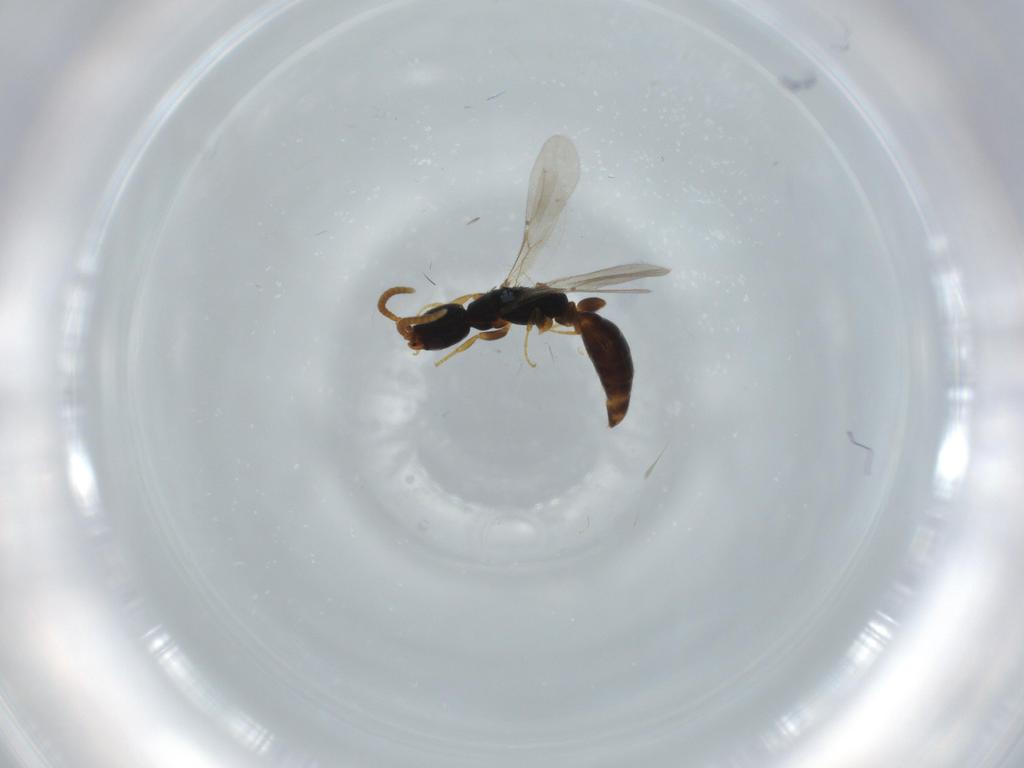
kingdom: Animalia
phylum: Arthropoda
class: Insecta
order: Hymenoptera
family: Bethylidae
